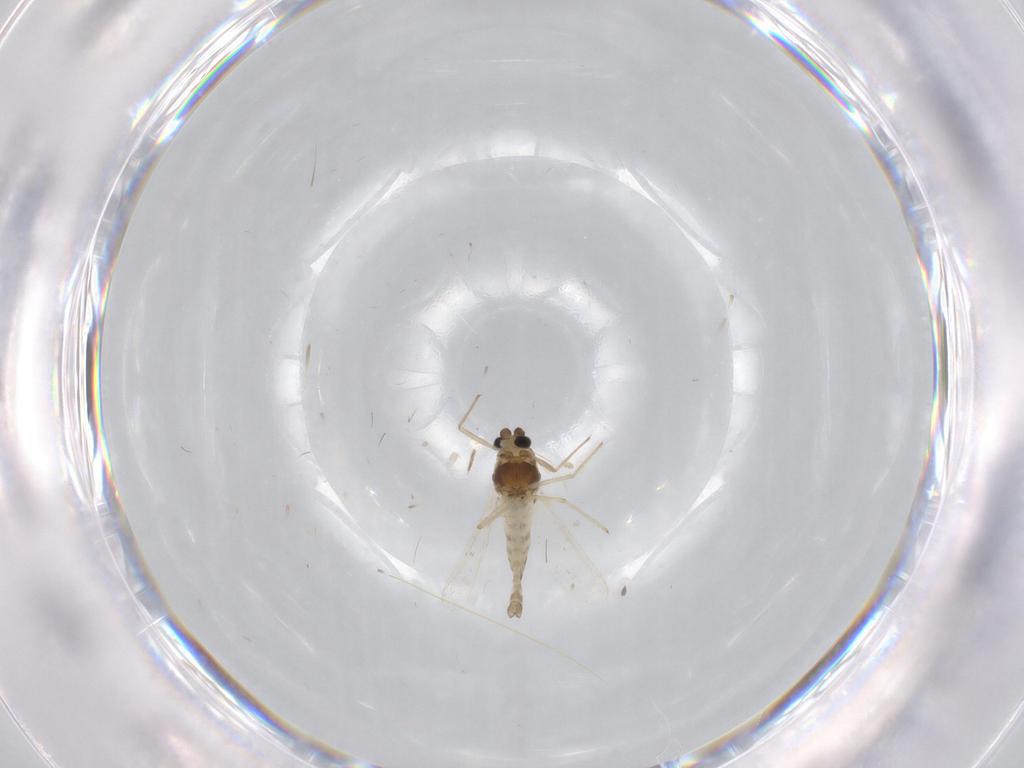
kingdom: Animalia
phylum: Arthropoda
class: Insecta
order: Diptera
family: Chironomidae
